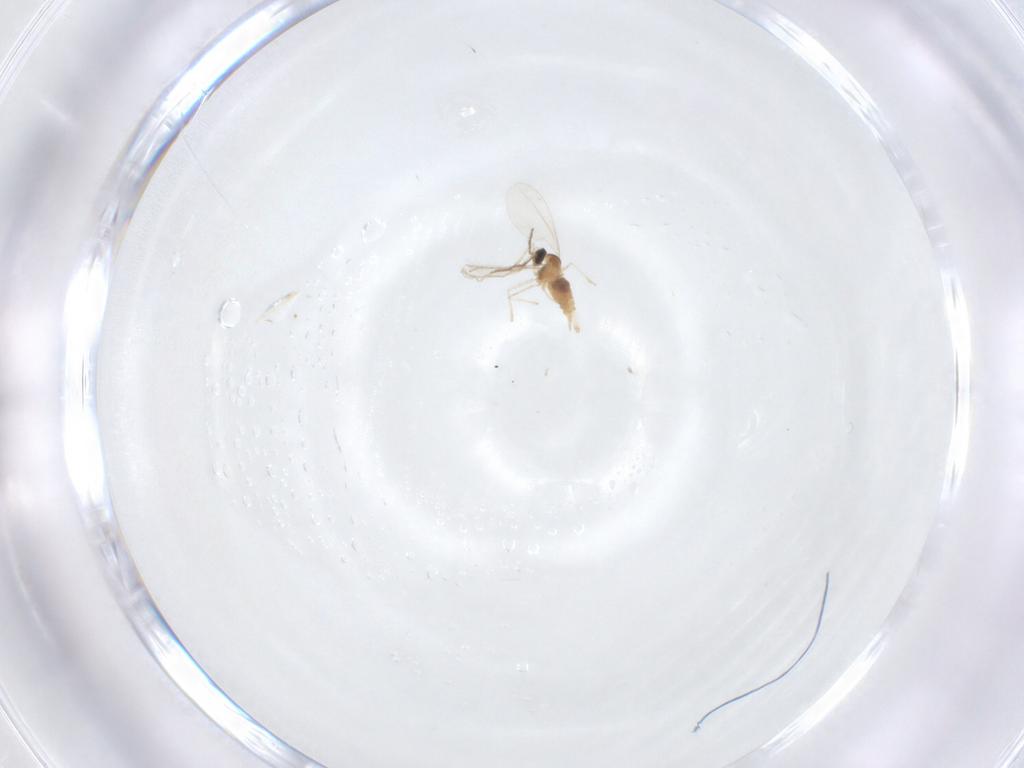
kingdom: Animalia
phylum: Arthropoda
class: Insecta
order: Diptera
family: Cecidomyiidae
